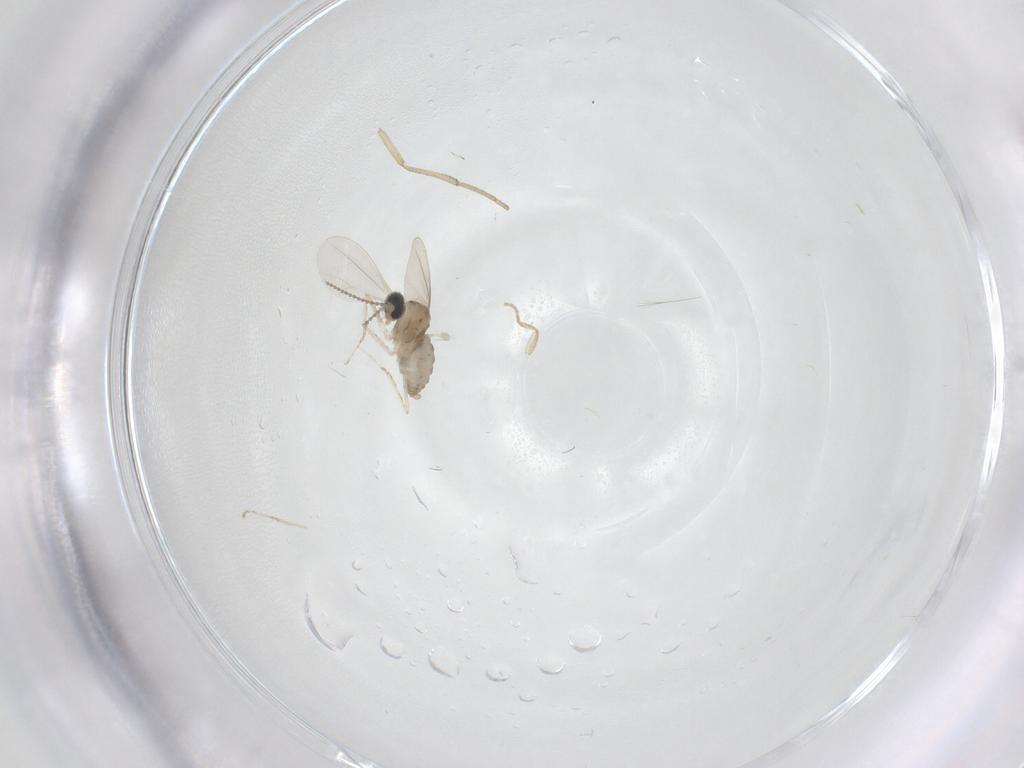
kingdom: Animalia
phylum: Arthropoda
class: Insecta
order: Diptera
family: Cecidomyiidae
